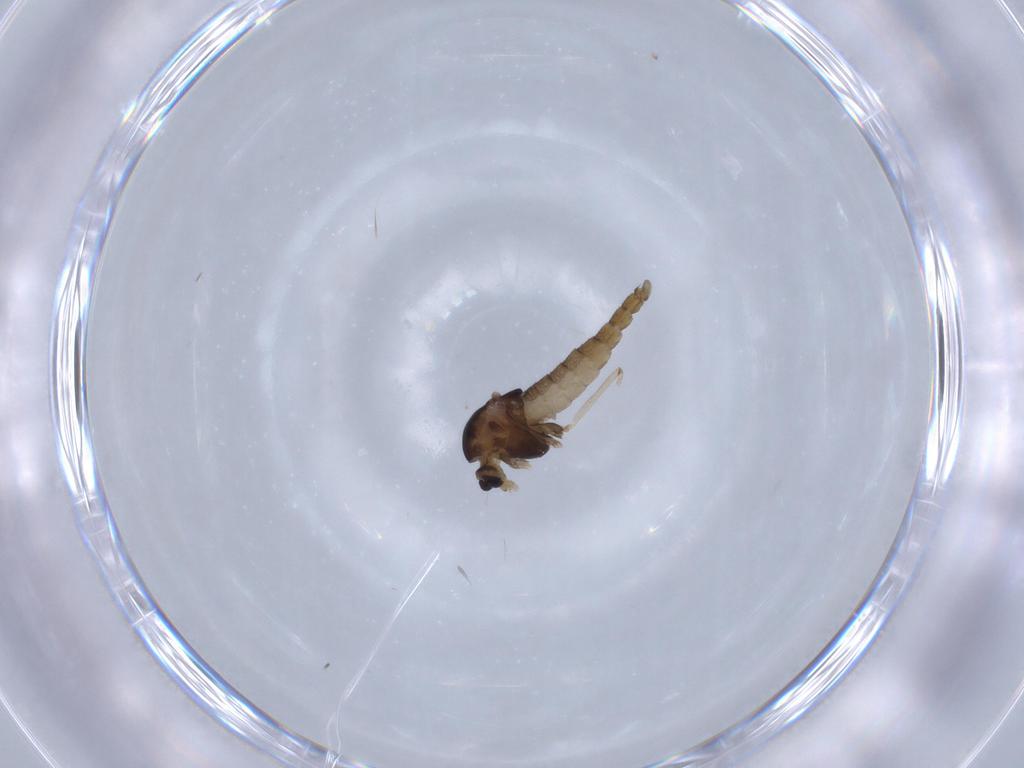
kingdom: Animalia
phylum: Arthropoda
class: Insecta
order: Diptera
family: Chironomidae
